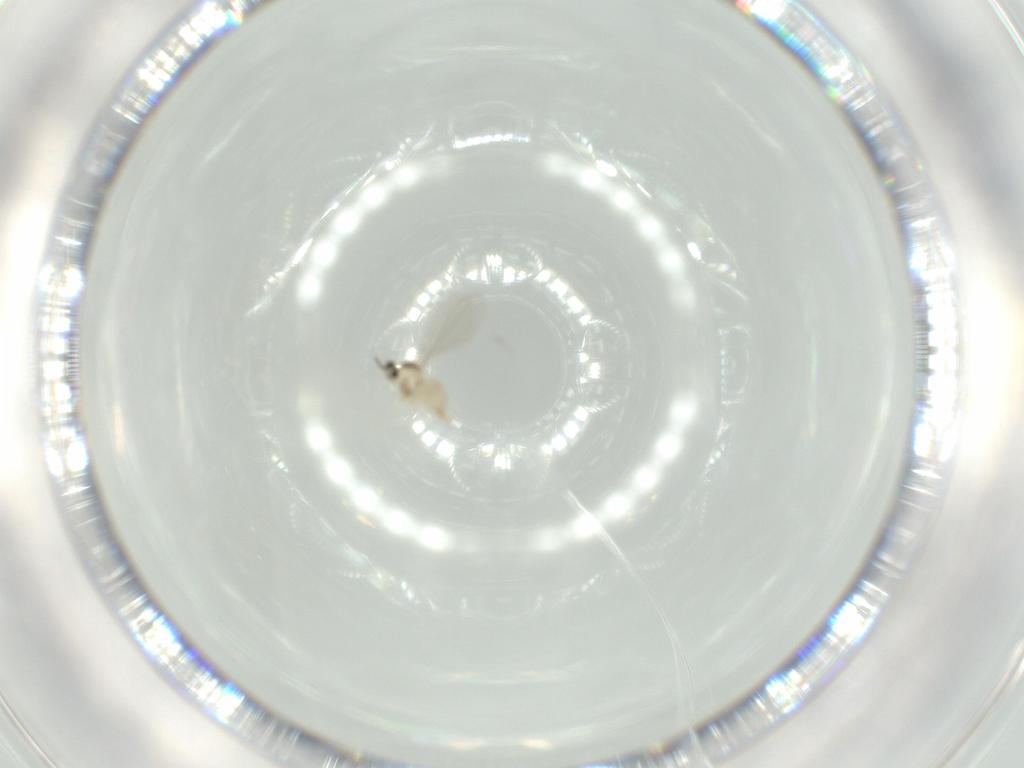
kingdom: Animalia
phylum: Arthropoda
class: Insecta
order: Diptera
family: Cecidomyiidae
